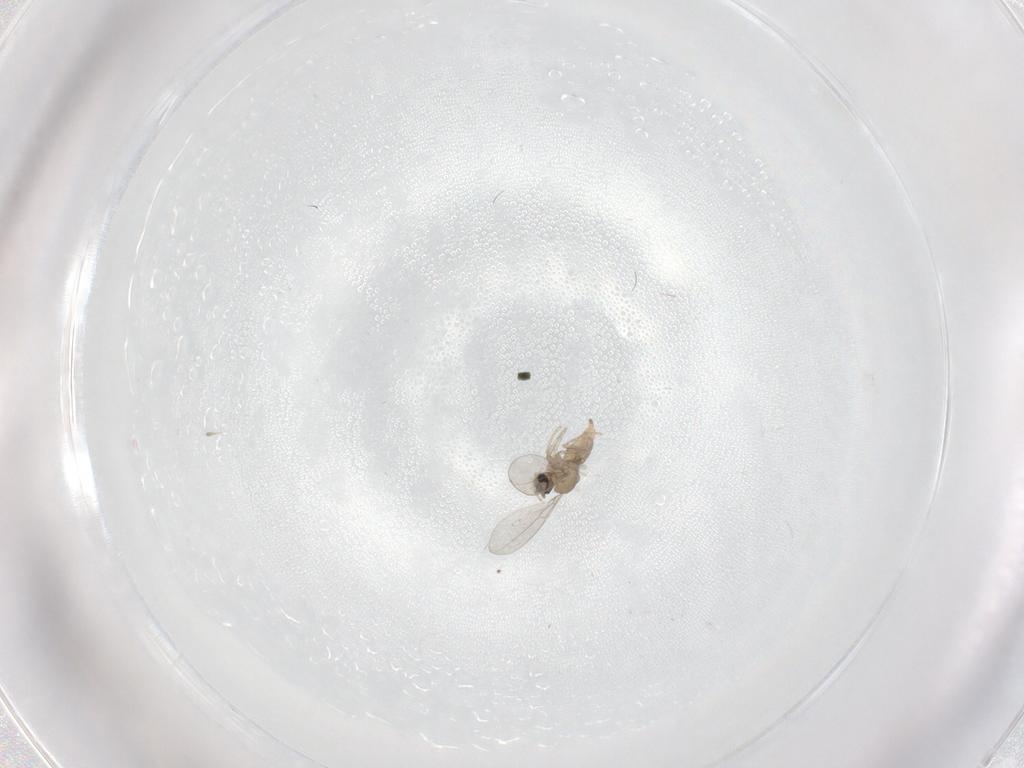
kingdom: Animalia
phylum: Arthropoda
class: Insecta
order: Diptera
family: Cecidomyiidae
